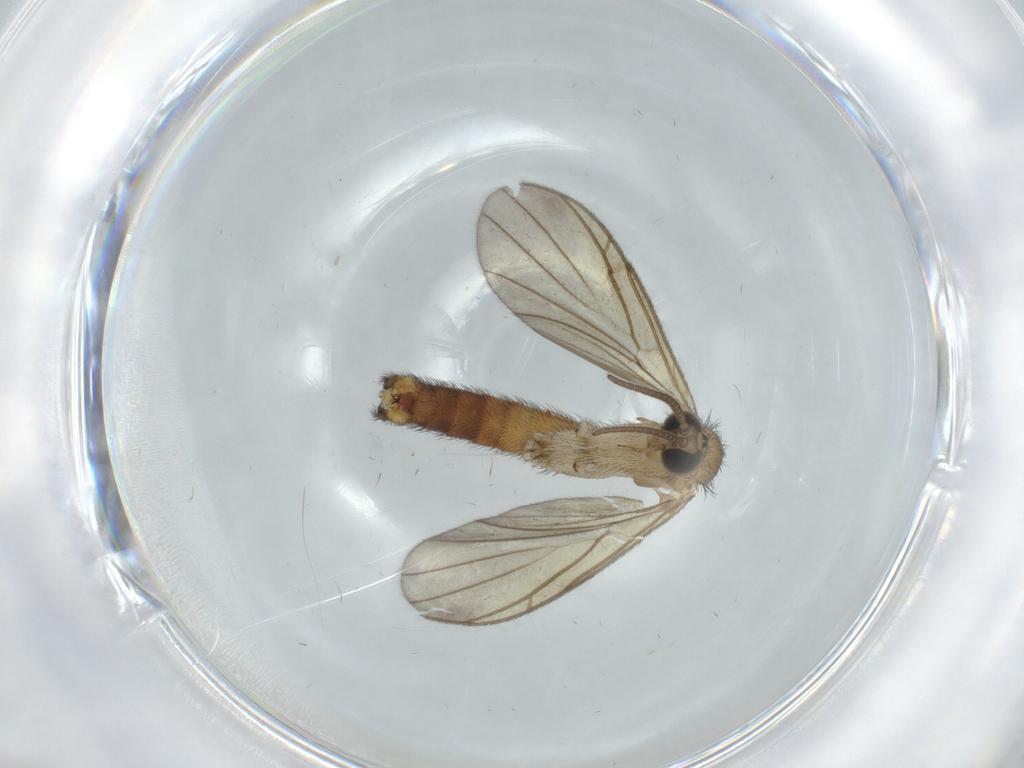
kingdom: Animalia
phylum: Arthropoda
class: Insecta
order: Diptera
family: Keroplatidae
